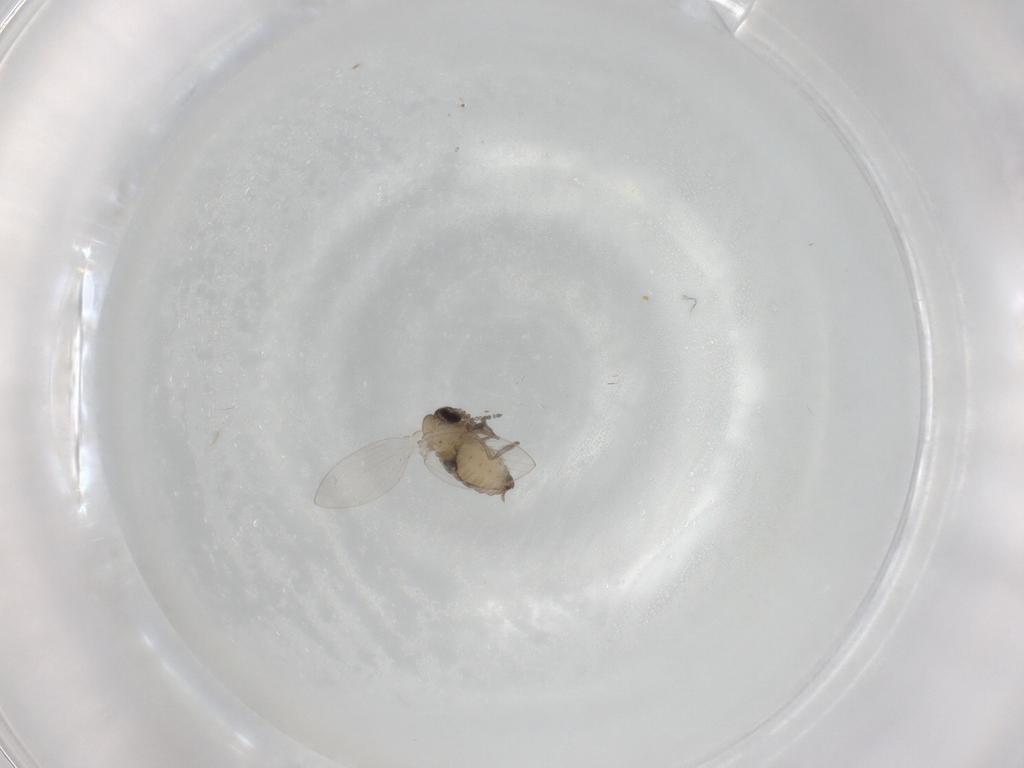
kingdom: Animalia
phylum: Arthropoda
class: Insecta
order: Diptera
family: Psychodidae
